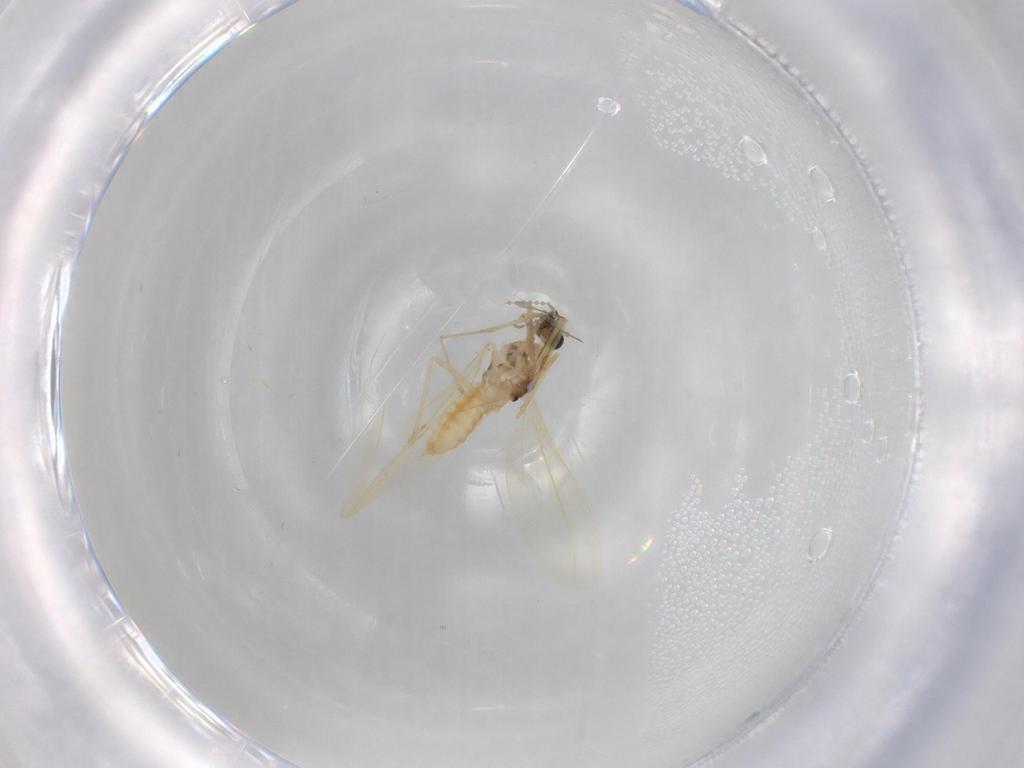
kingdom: Animalia
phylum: Arthropoda
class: Insecta
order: Diptera
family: Cecidomyiidae
